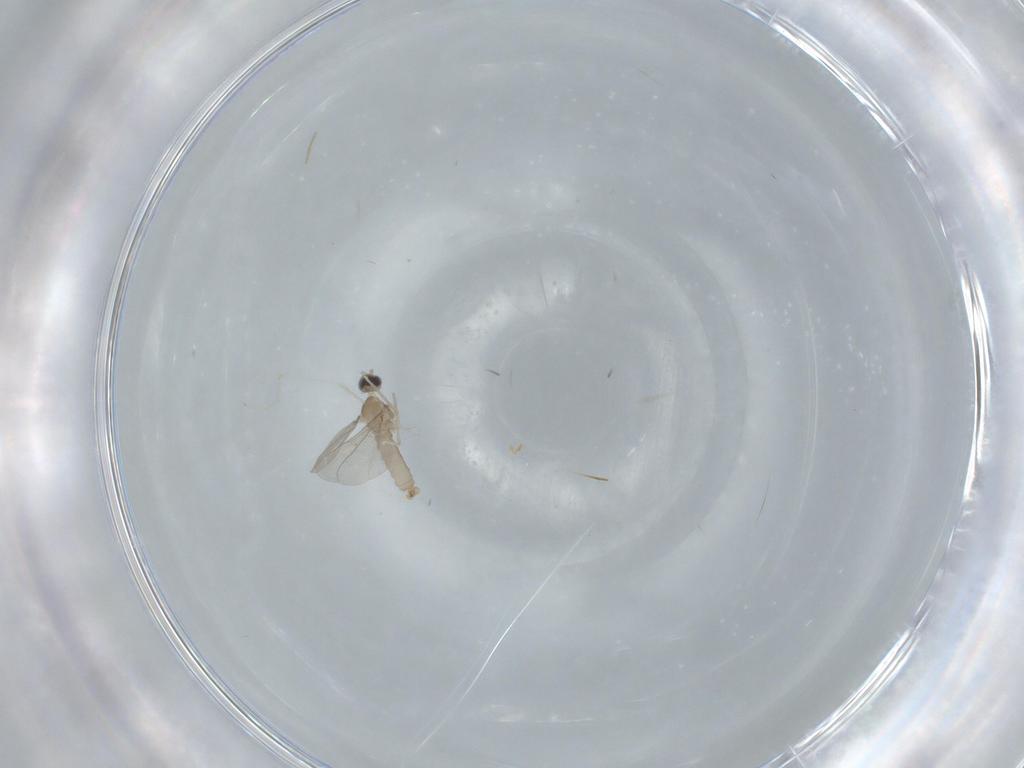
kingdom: Animalia
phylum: Arthropoda
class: Insecta
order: Diptera
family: Cecidomyiidae
